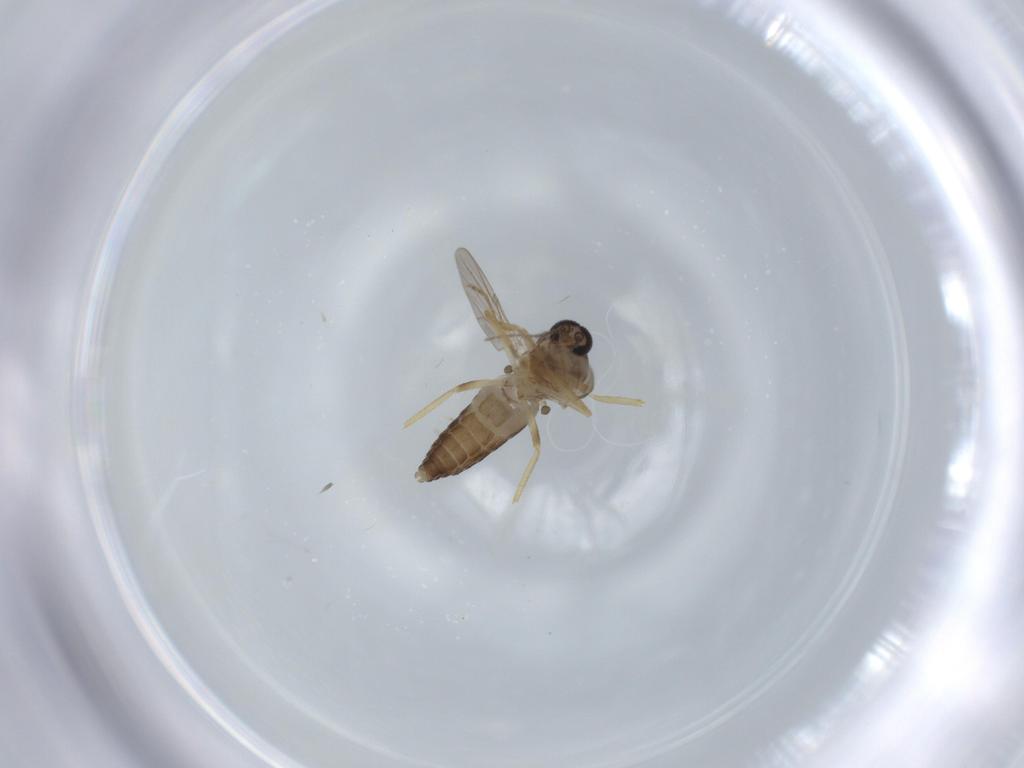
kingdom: Animalia
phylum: Arthropoda
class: Insecta
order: Diptera
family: Ceratopogonidae
